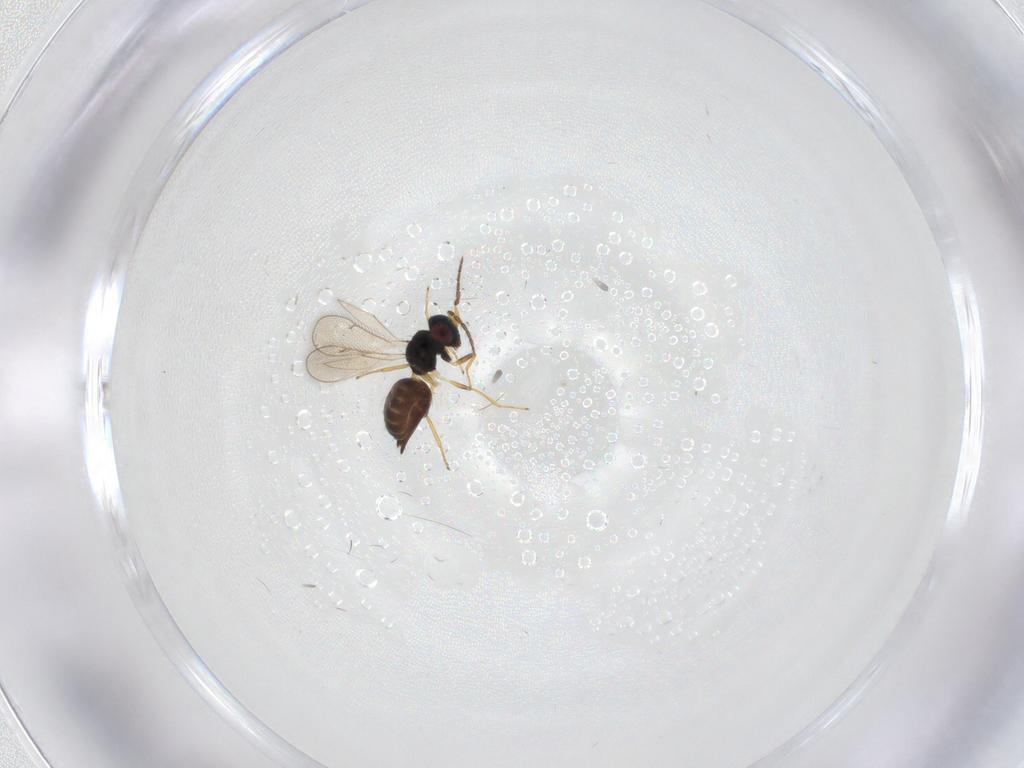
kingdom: Animalia
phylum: Arthropoda
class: Insecta
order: Hymenoptera
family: Eulophidae
